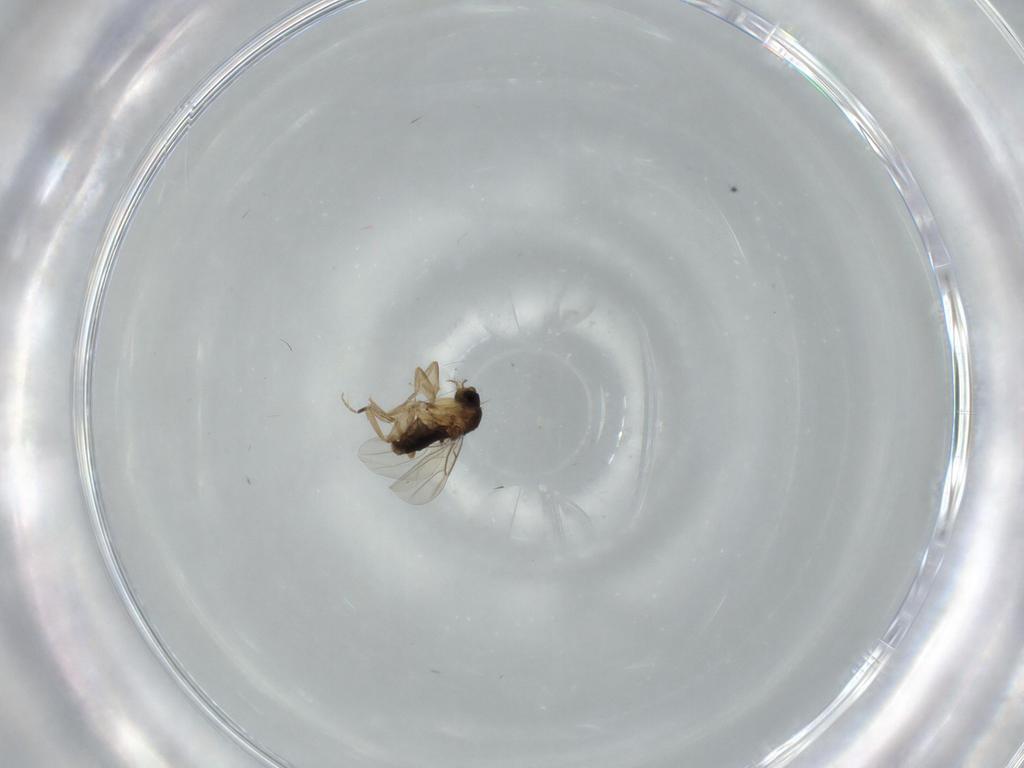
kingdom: Animalia
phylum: Arthropoda
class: Insecta
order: Diptera
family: Phoridae
